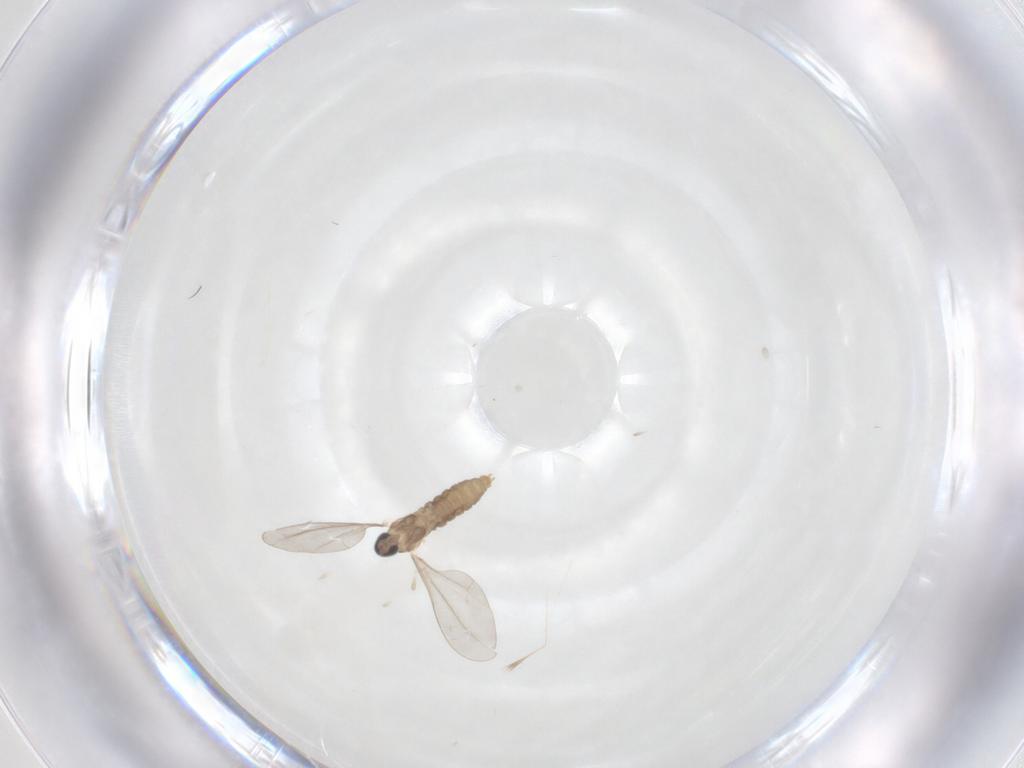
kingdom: Animalia
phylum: Arthropoda
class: Insecta
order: Diptera
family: Cecidomyiidae
